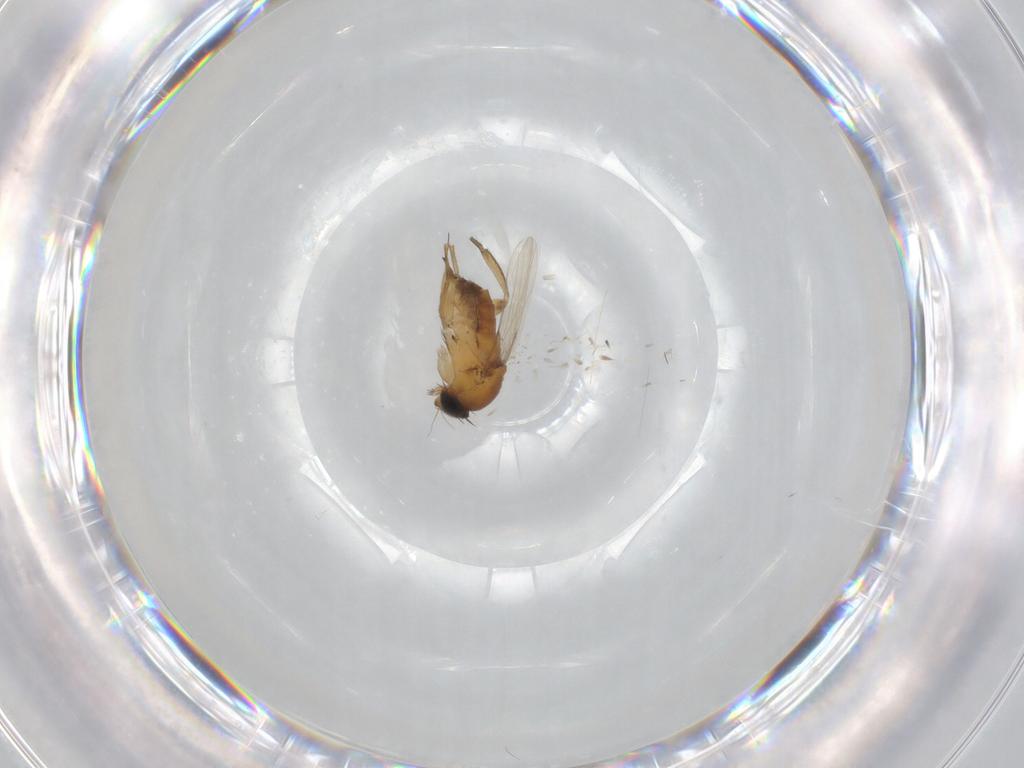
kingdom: Animalia
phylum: Arthropoda
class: Insecta
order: Diptera
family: Phoridae
